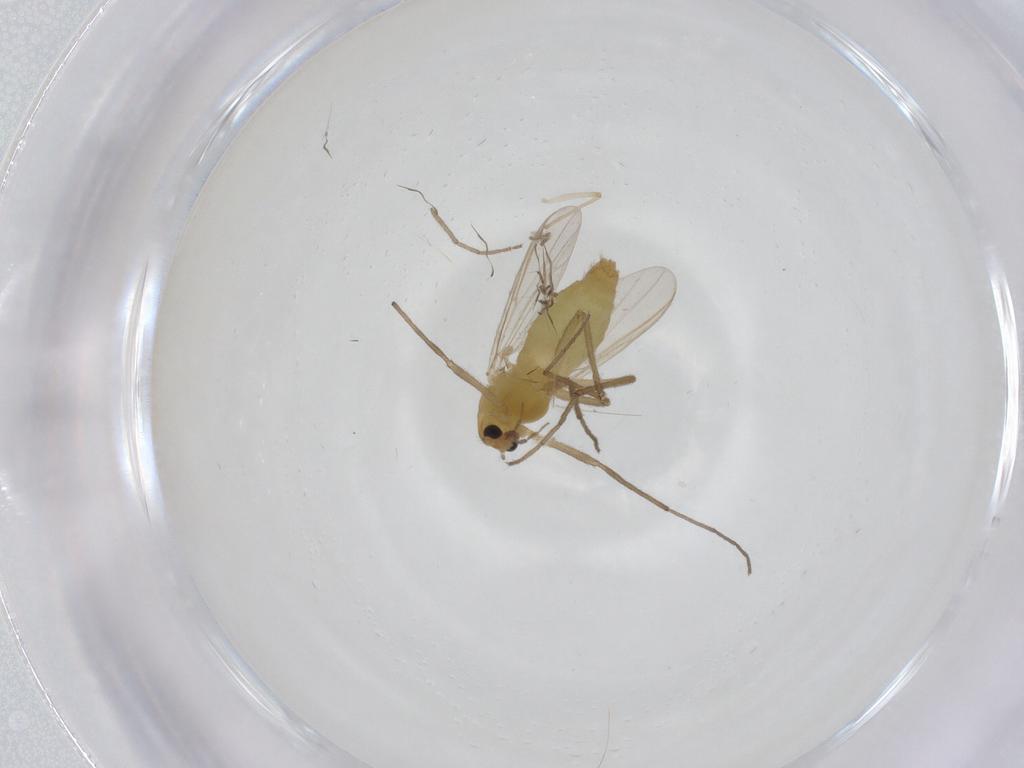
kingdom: Animalia
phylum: Arthropoda
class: Insecta
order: Diptera
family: Chironomidae
